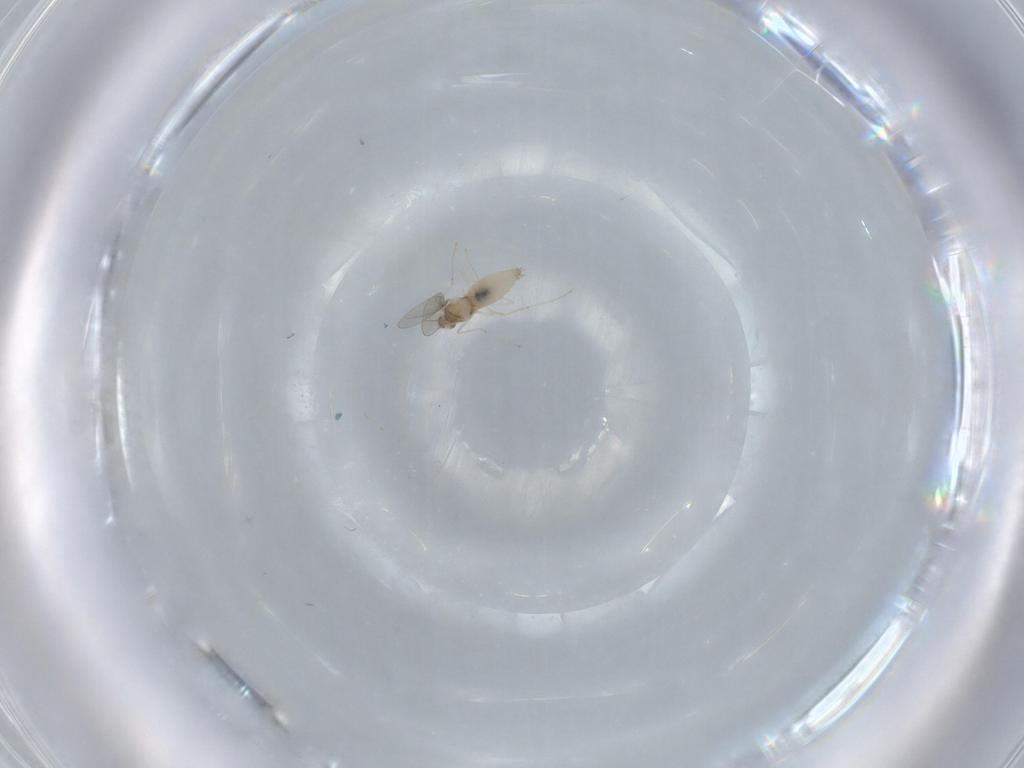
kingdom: Animalia
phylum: Arthropoda
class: Insecta
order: Diptera
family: Cecidomyiidae
